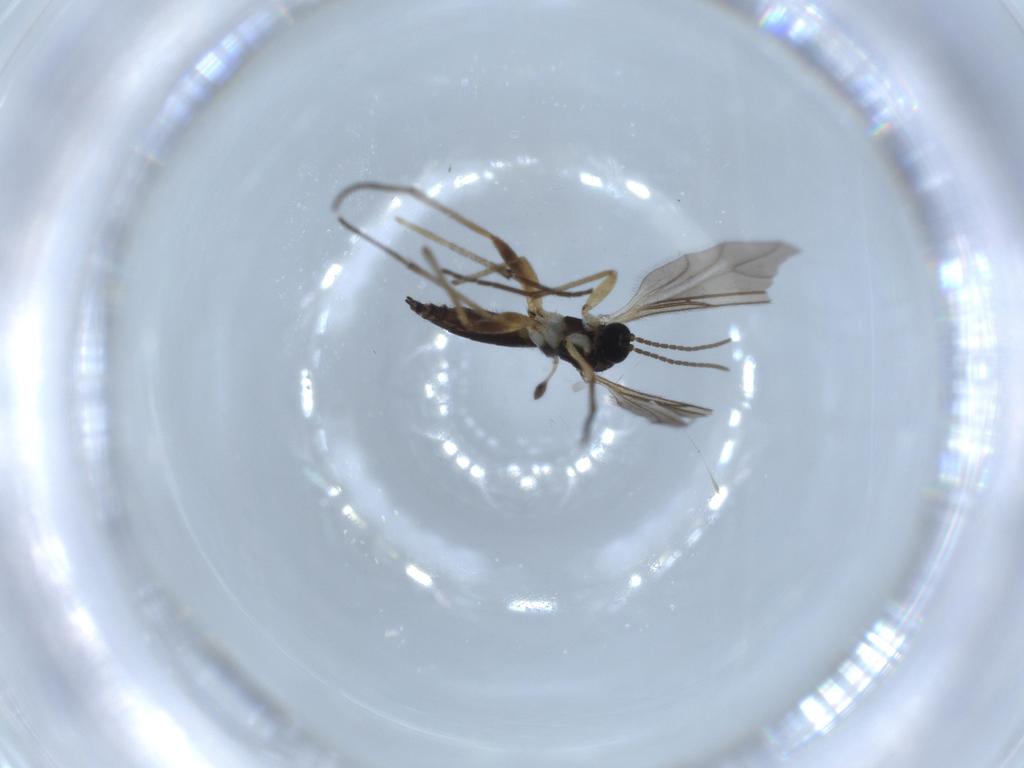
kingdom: Animalia
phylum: Arthropoda
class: Insecta
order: Diptera
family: Sciaridae
